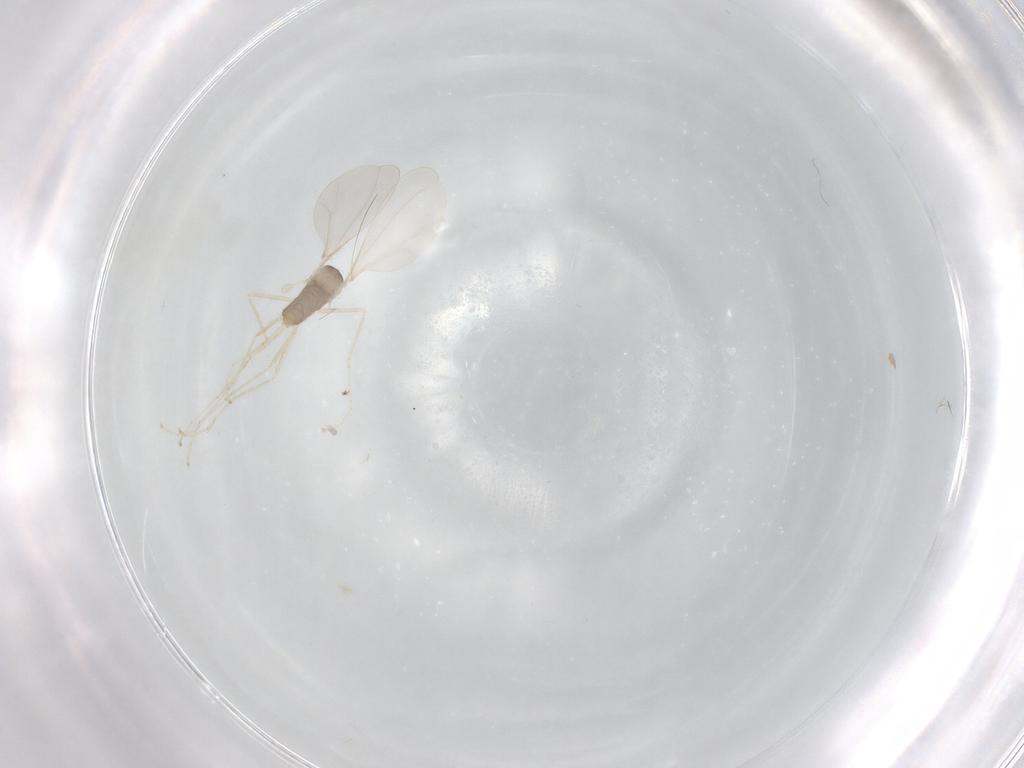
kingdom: Animalia
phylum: Arthropoda
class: Insecta
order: Diptera
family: Cecidomyiidae
